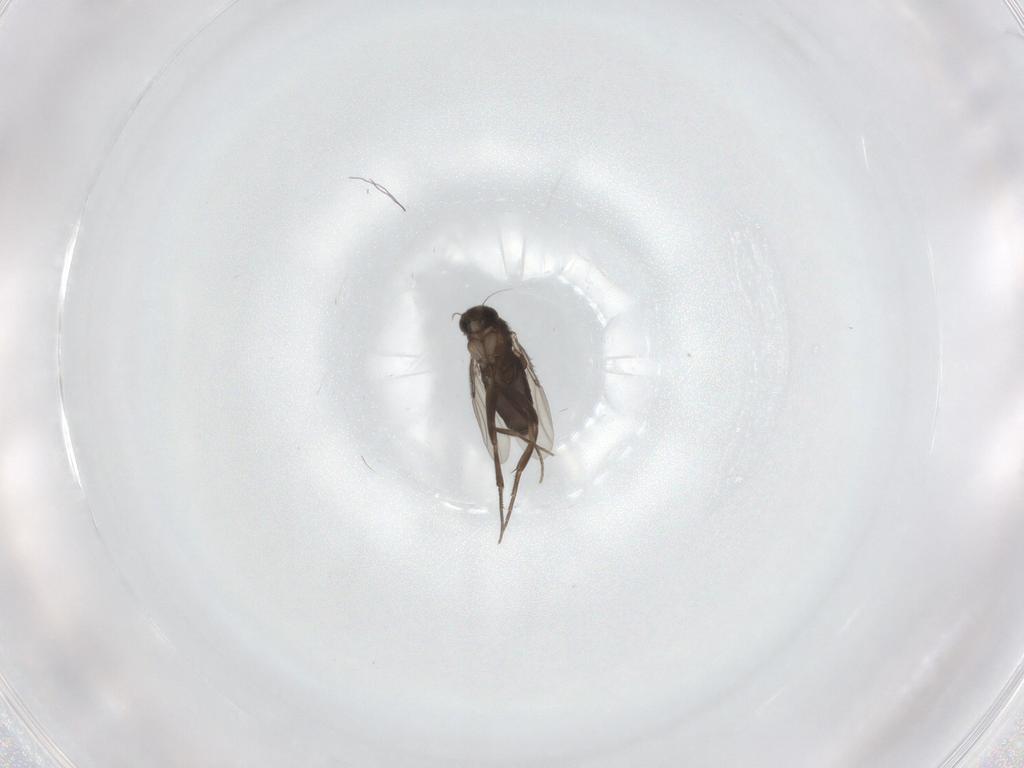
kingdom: Animalia
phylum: Arthropoda
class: Insecta
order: Diptera
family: Phoridae
